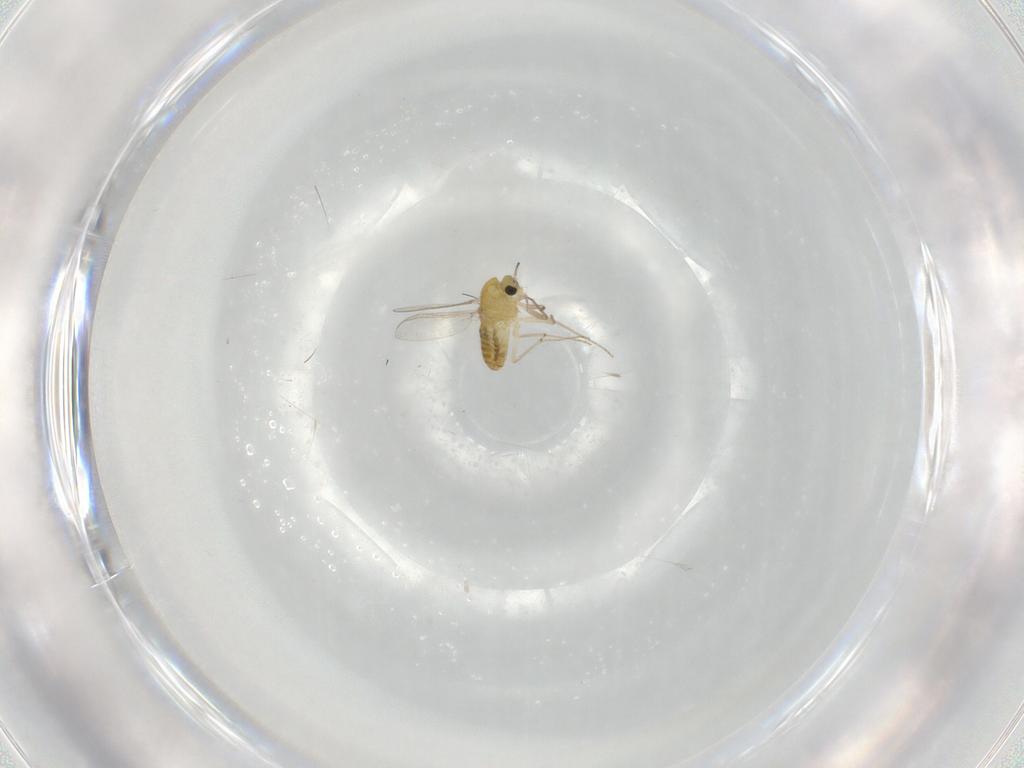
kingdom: Animalia
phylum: Arthropoda
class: Insecta
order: Diptera
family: Chironomidae
